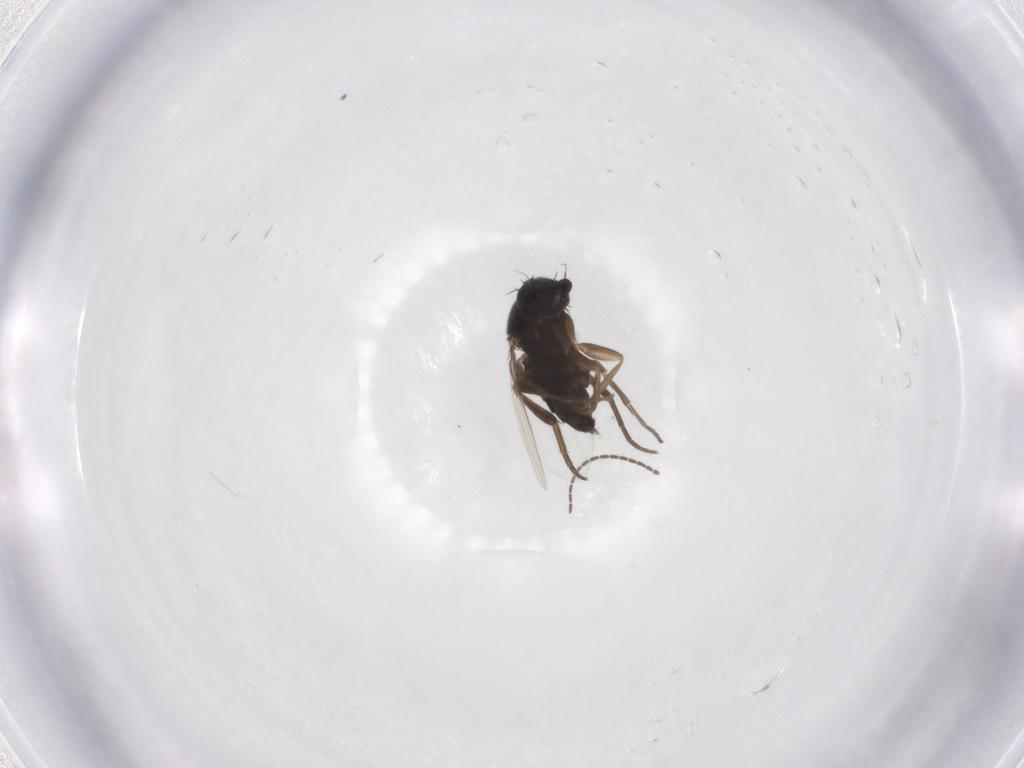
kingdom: Animalia
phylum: Arthropoda
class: Insecta
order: Diptera
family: Phoridae
